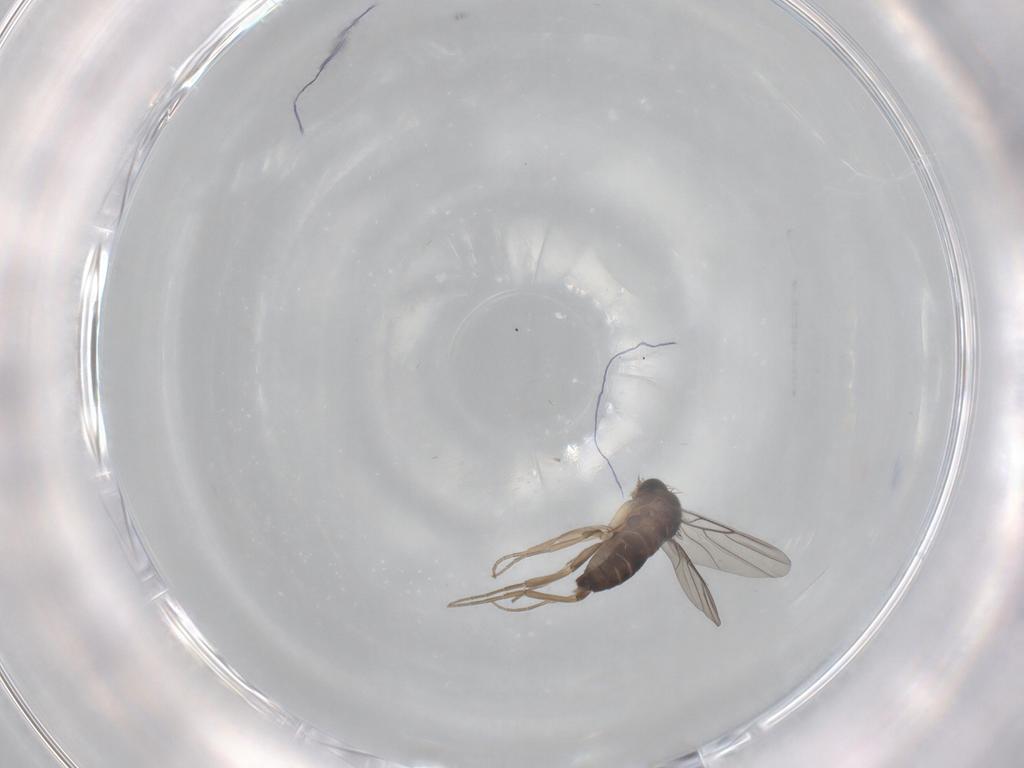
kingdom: Animalia
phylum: Arthropoda
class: Insecta
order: Diptera
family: Phoridae
